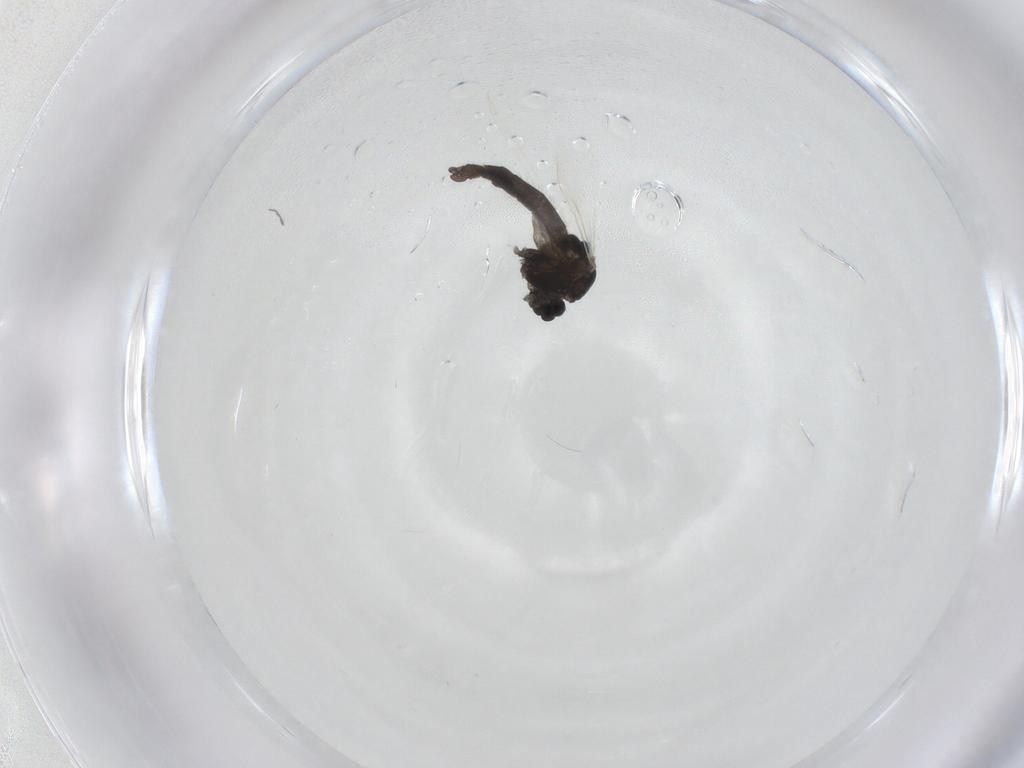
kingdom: Animalia
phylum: Arthropoda
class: Insecta
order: Diptera
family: Chironomidae
